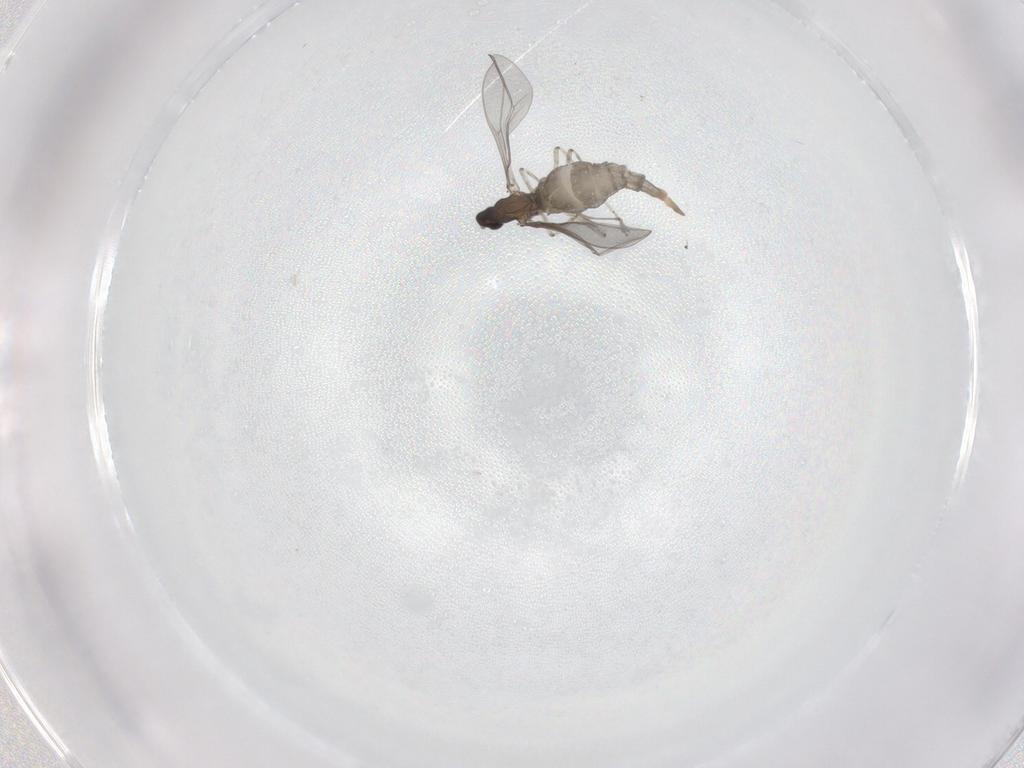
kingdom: Animalia
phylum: Arthropoda
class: Insecta
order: Diptera
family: Cecidomyiidae
